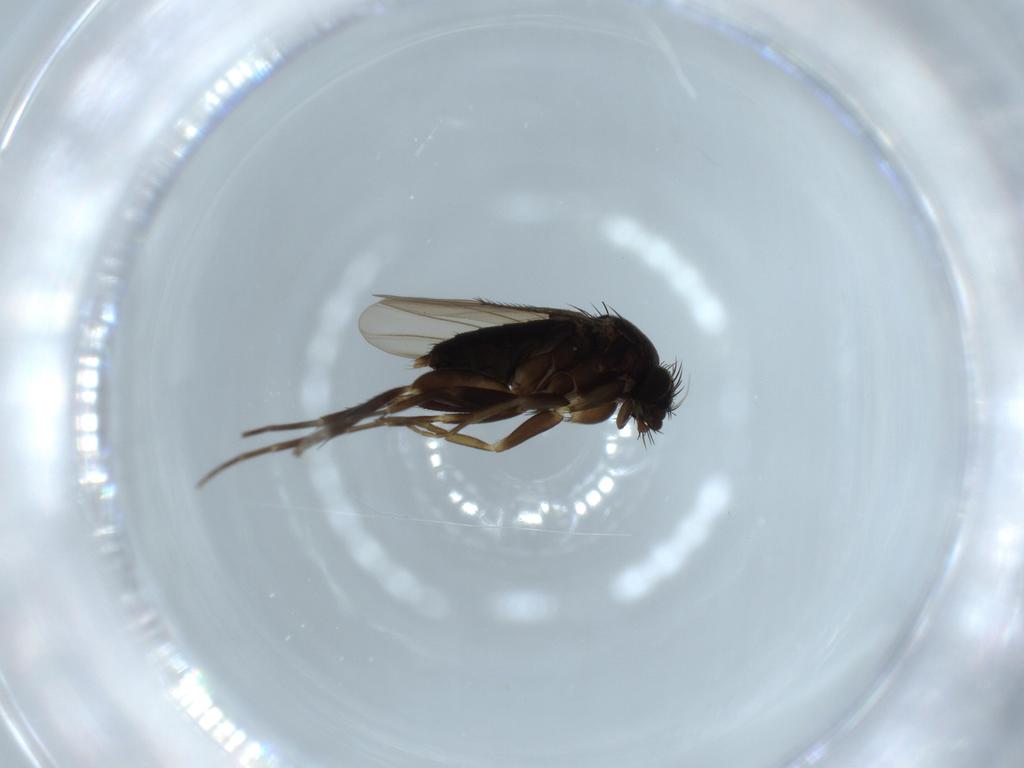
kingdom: Animalia
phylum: Arthropoda
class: Insecta
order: Diptera
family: Phoridae
